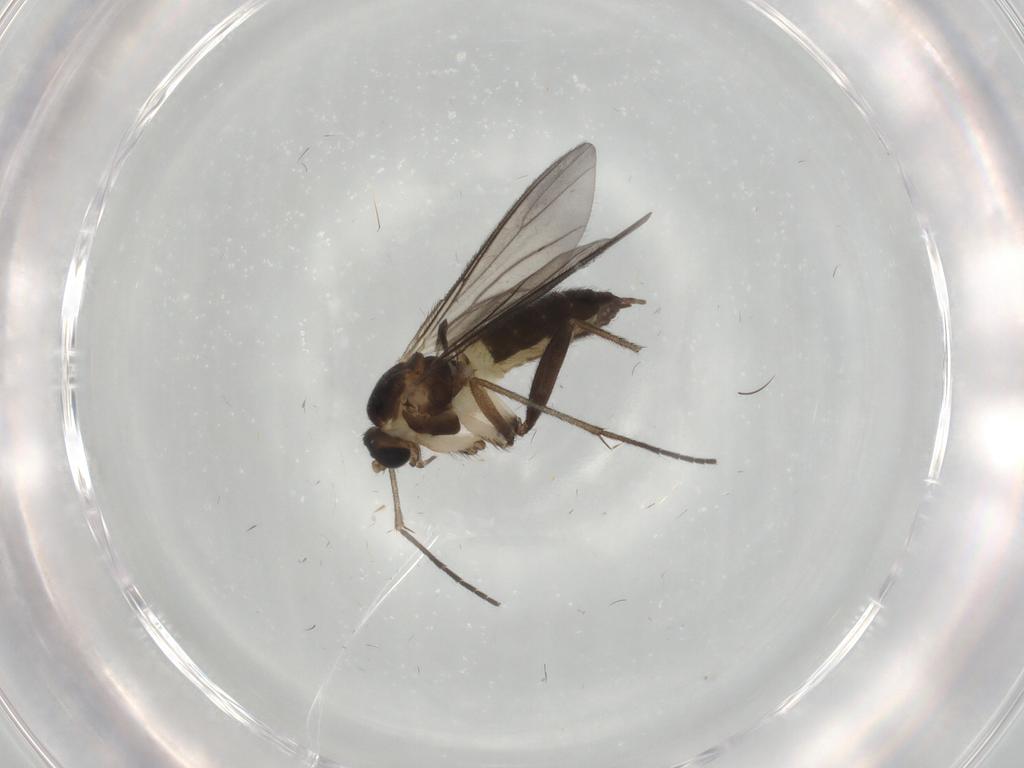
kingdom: Animalia
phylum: Arthropoda
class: Insecta
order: Diptera
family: Sciaridae
